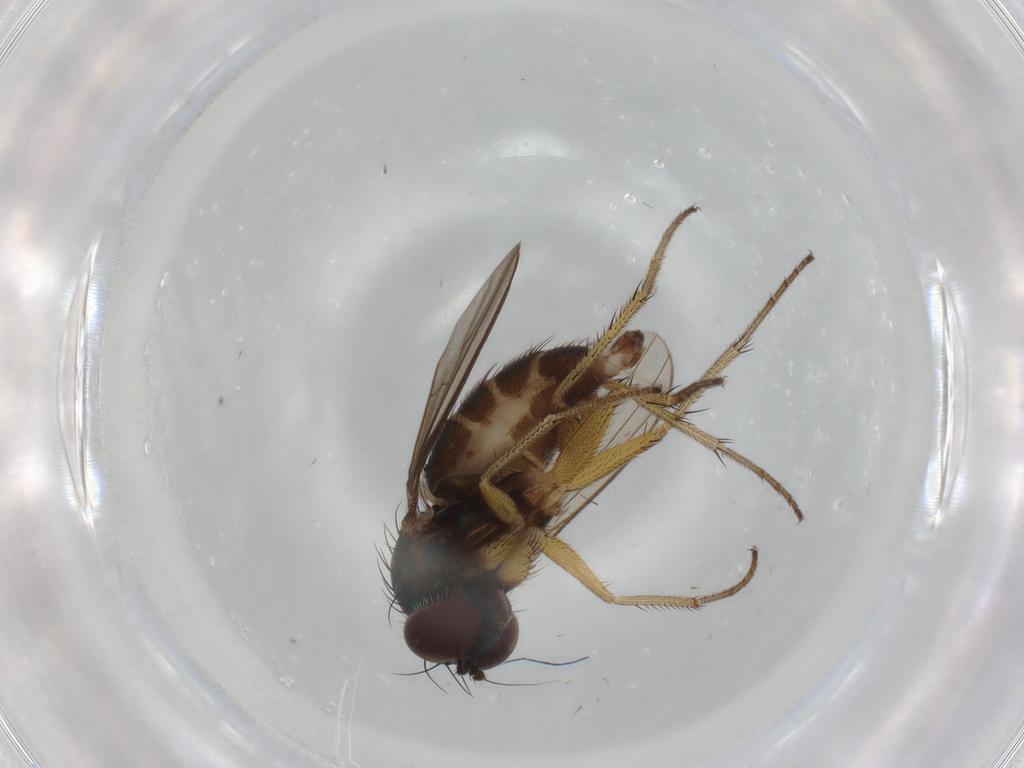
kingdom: Animalia
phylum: Arthropoda
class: Insecta
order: Diptera
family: Dolichopodidae
